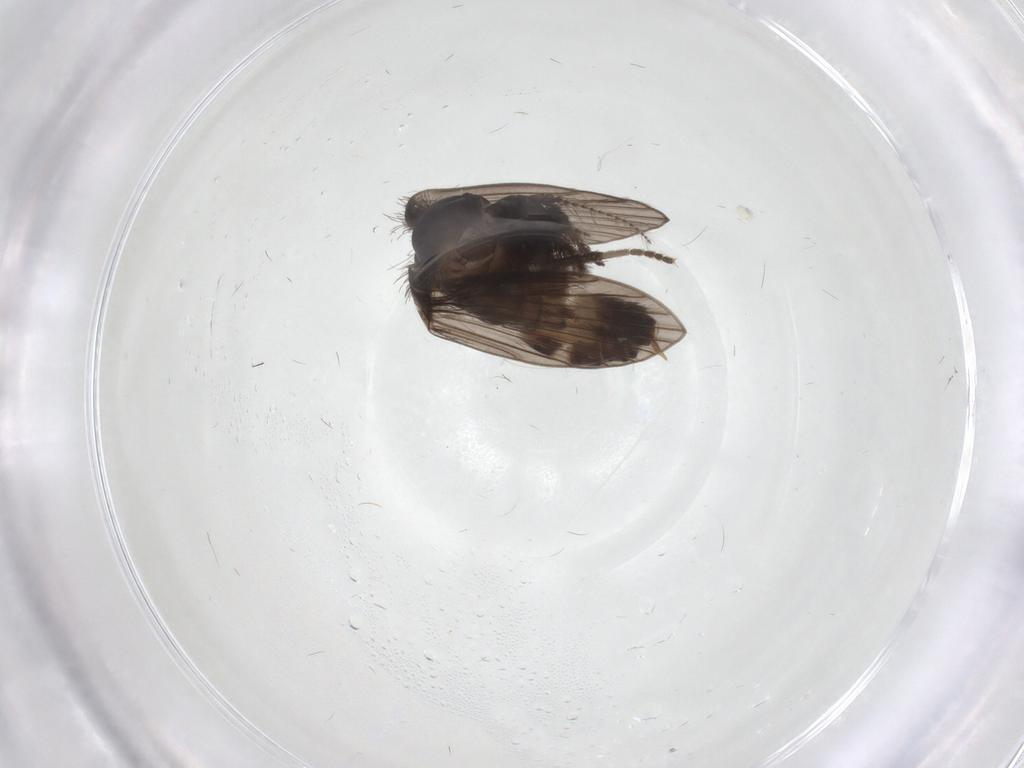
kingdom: Animalia
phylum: Arthropoda
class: Insecta
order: Diptera
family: Psychodidae
